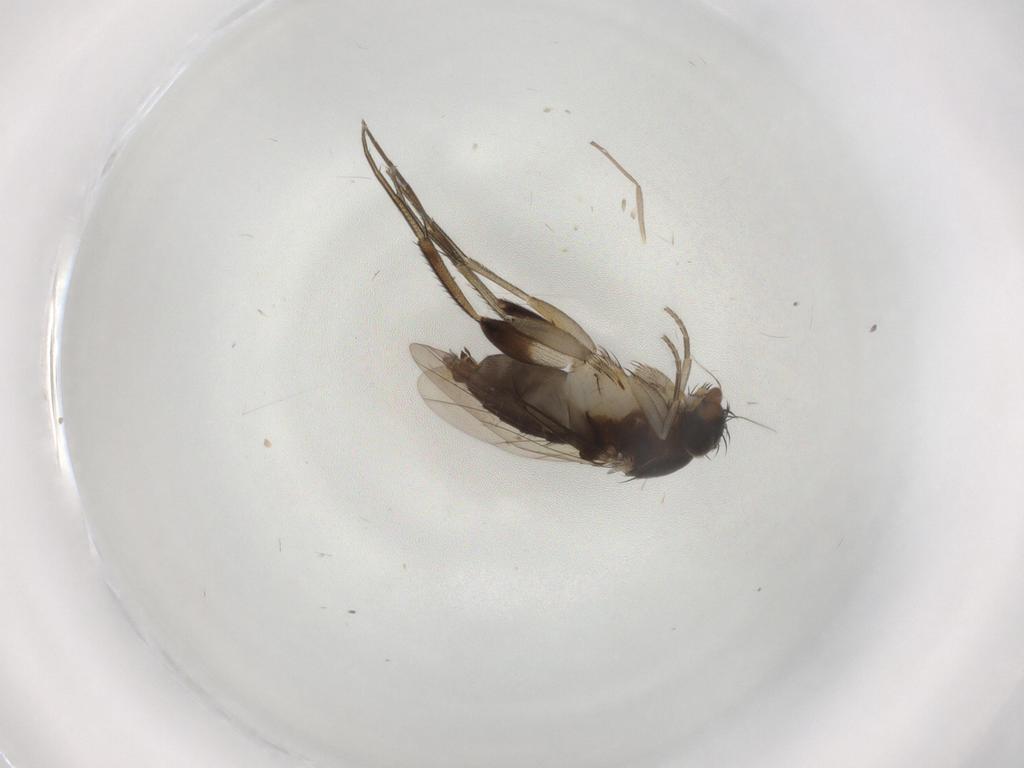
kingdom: Animalia
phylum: Arthropoda
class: Insecta
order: Diptera
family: Phoridae
